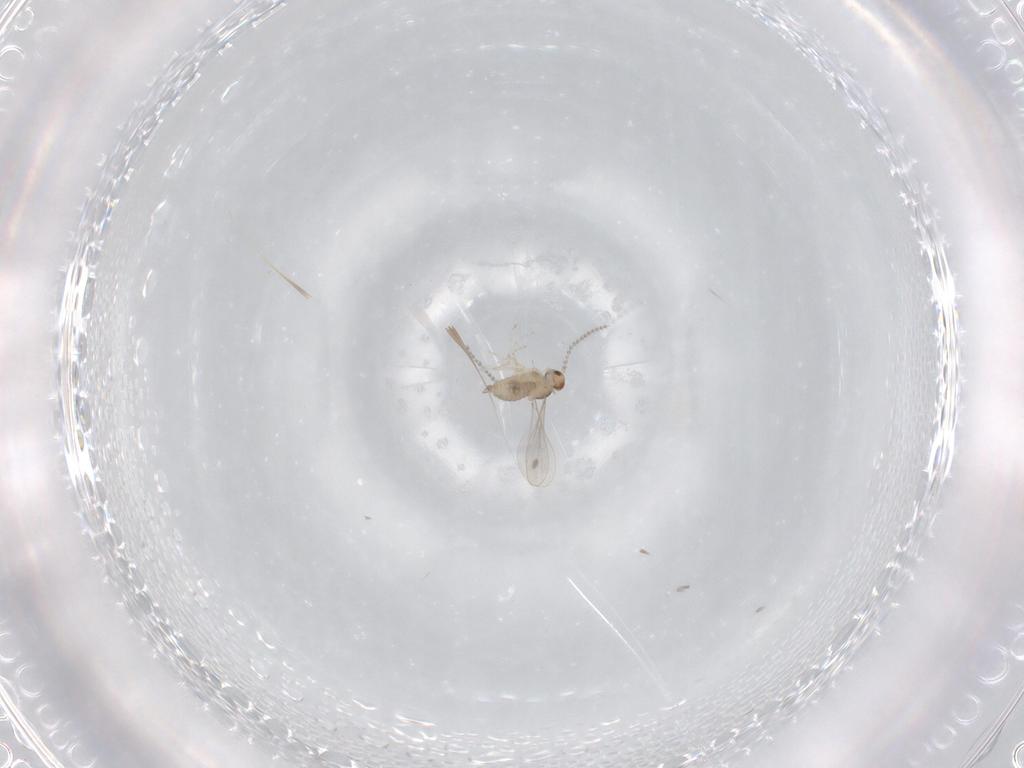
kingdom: Animalia
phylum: Arthropoda
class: Insecta
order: Diptera
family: Cecidomyiidae
